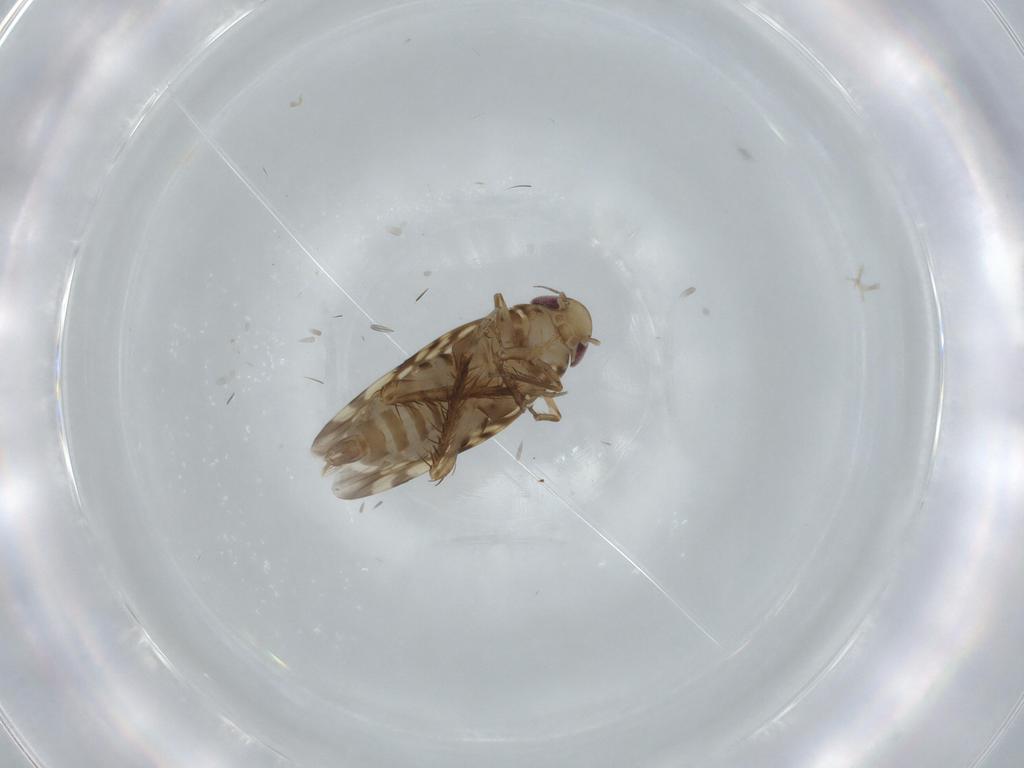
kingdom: Animalia
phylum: Arthropoda
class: Insecta
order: Hemiptera
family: Cicadellidae
